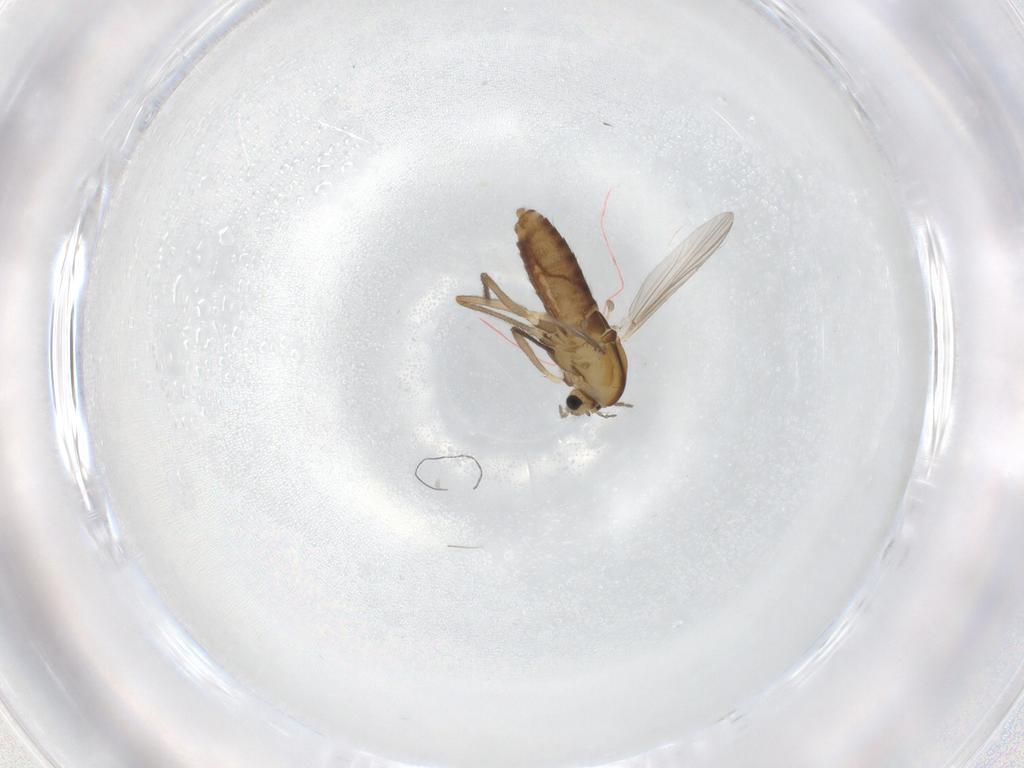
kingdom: Animalia
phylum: Arthropoda
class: Insecta
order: Diptera
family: Chironomidae
